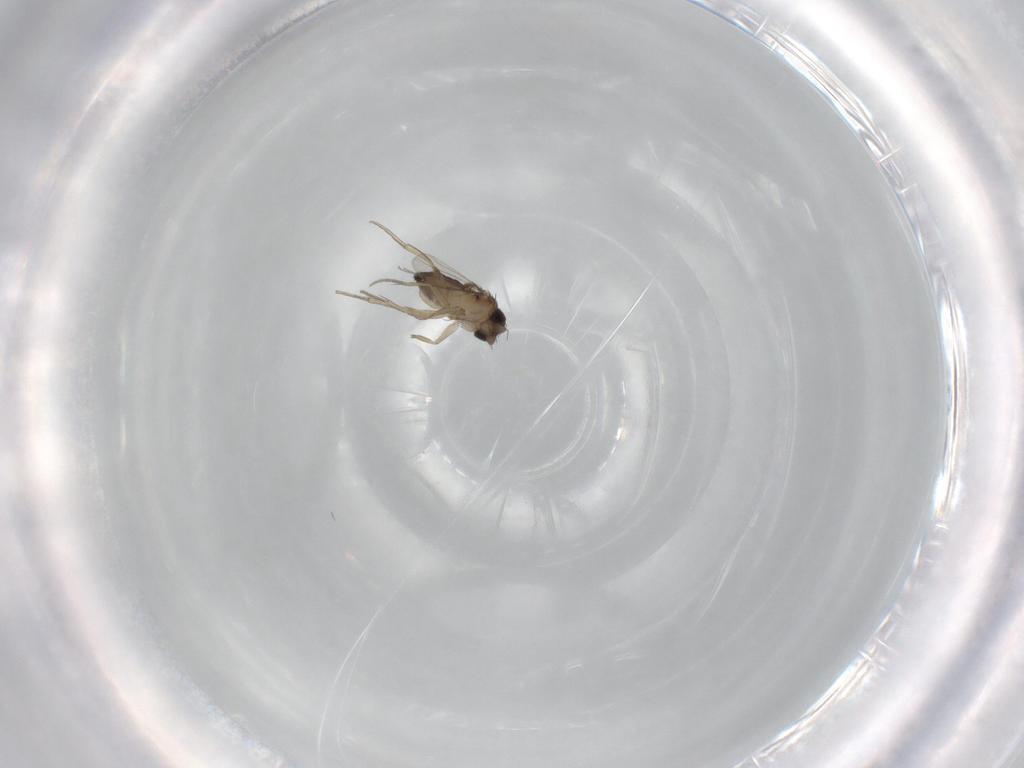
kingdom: Animalia
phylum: Arthropoda
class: Insecta
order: Diptera
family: Phoridae
